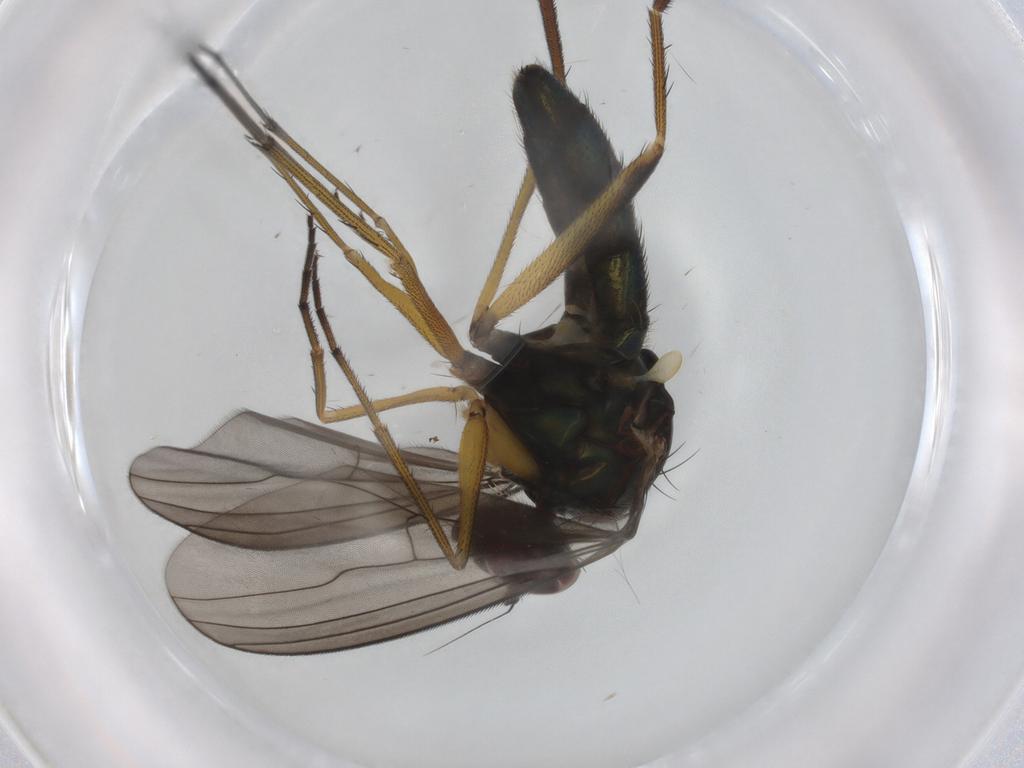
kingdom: Animalia
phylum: Arthropoda
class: Insecta
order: Diptera
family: Dolichopodidae
